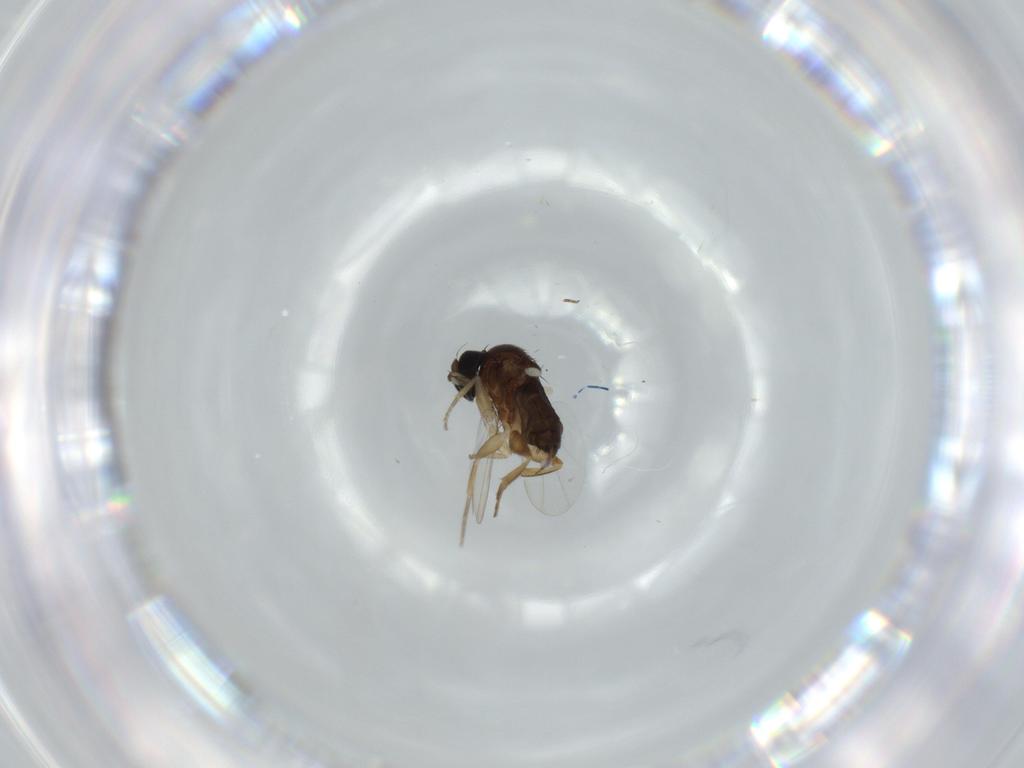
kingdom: Animalia
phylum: Arthropoda
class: Insecta
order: Diptera
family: Phoridae
